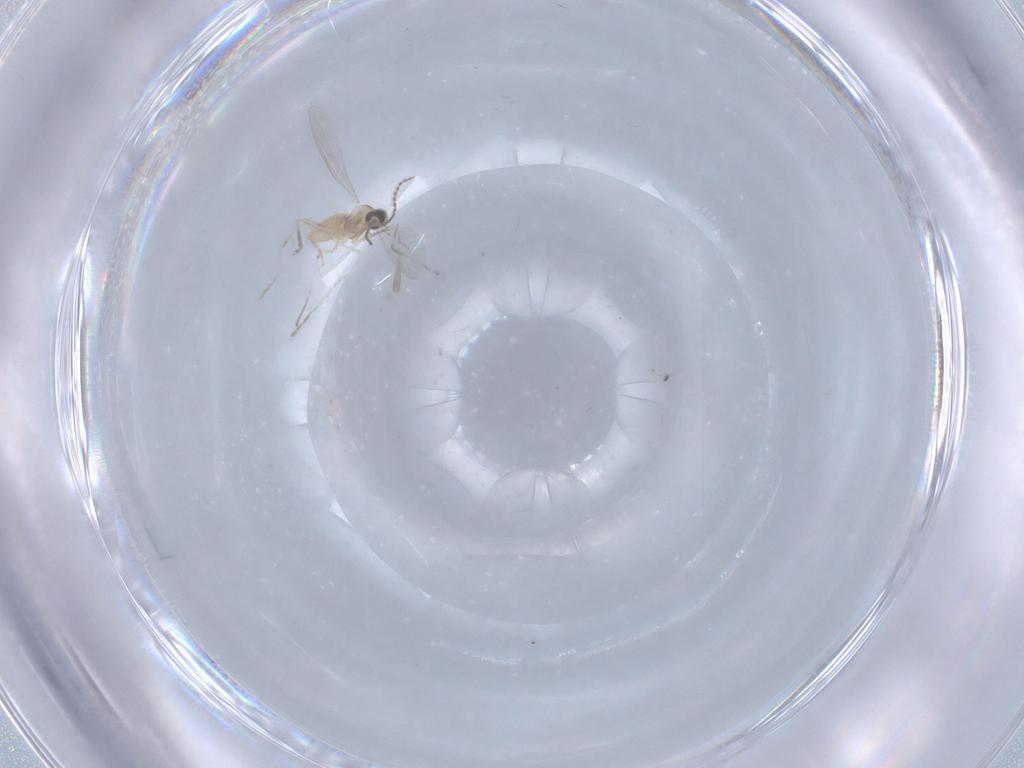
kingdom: Animalia
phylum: Arthropoda
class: Insecta
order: Diptera
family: Cecidomyiidae
